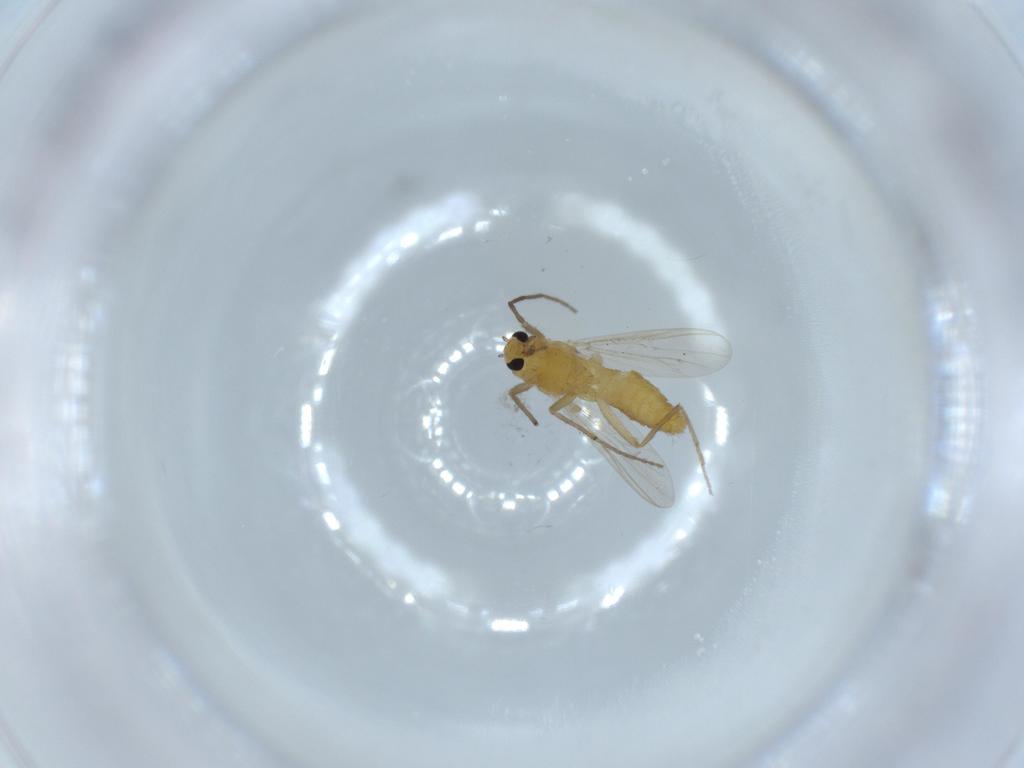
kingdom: Animalia
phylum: Arthropoda
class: Insecta
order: Diptera
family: Chironomidae
